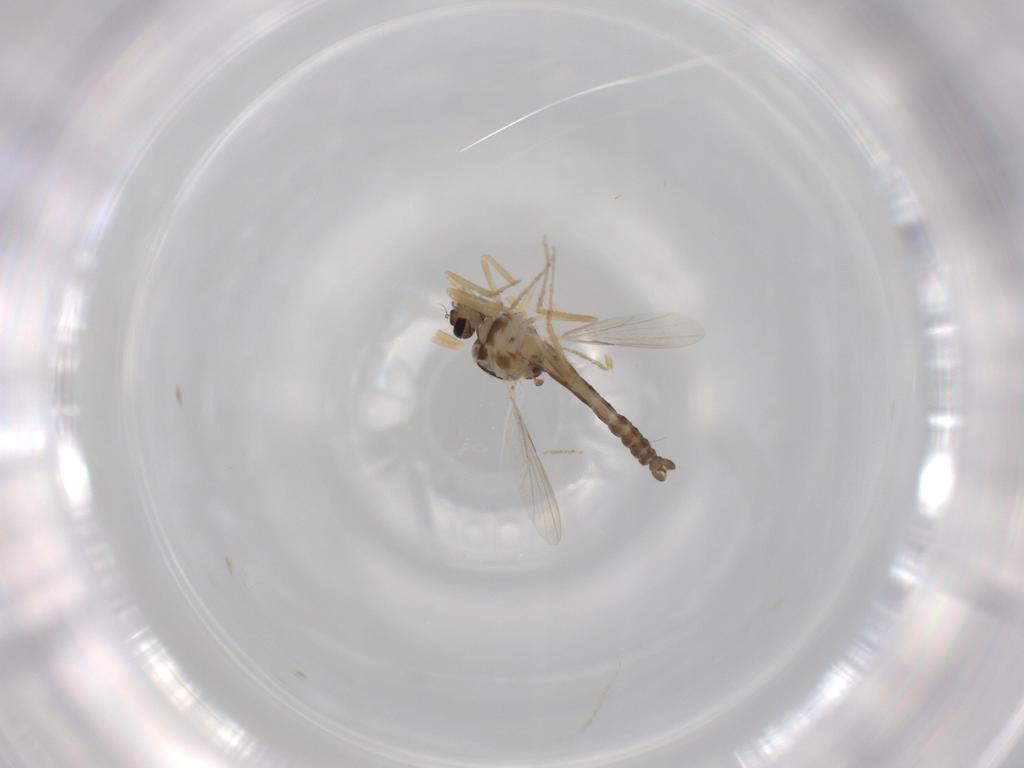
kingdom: Animalia
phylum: Arthropoda
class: Insecta
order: Diptera
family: Ceratopogonidae
